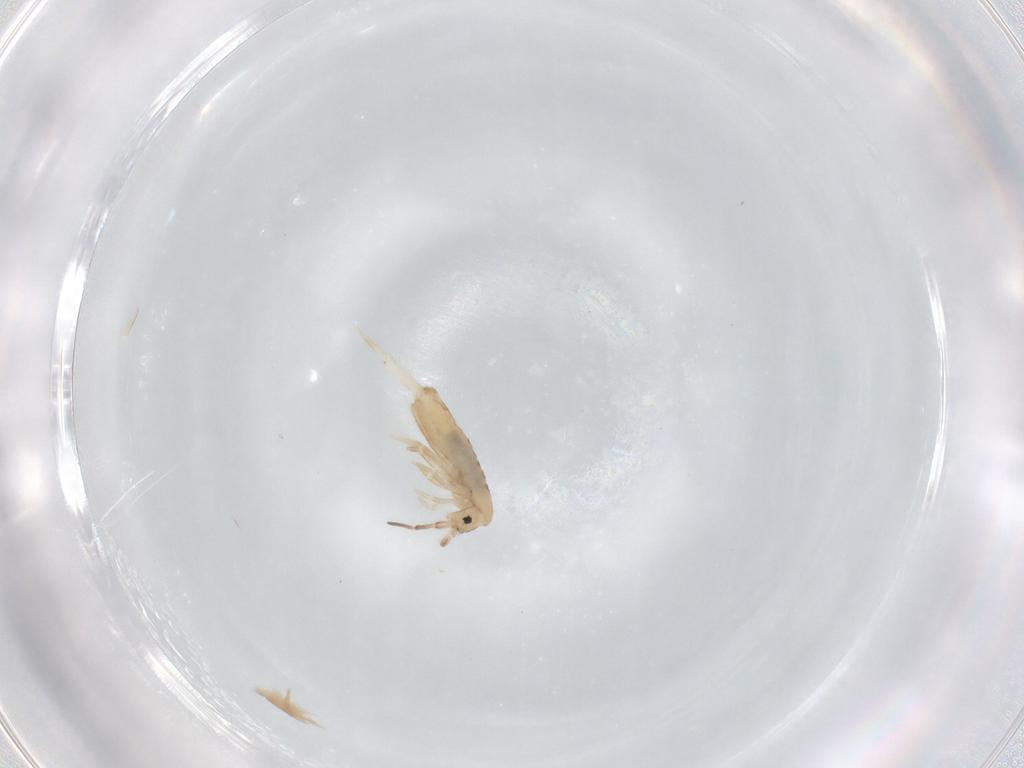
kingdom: Animalia
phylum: Arthropoda
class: Collembola
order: Entomobryomorpha
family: Entomobryidae
